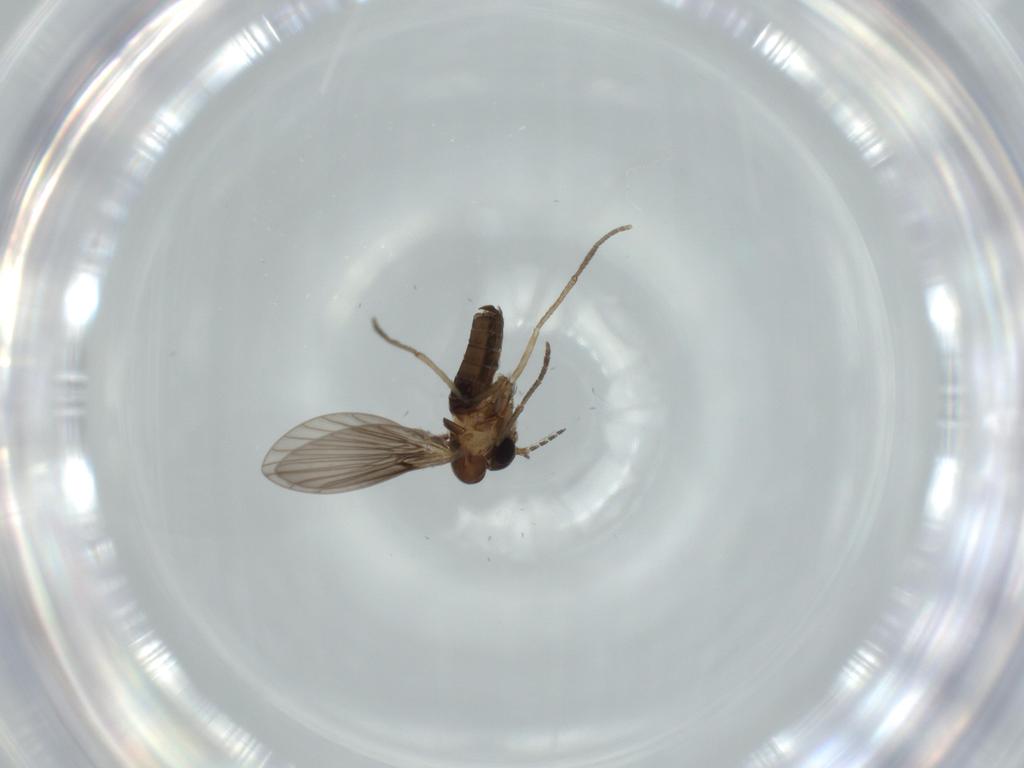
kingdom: Animalia
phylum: Arthropoda
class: Insecta
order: Diptera
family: Psychodidae
